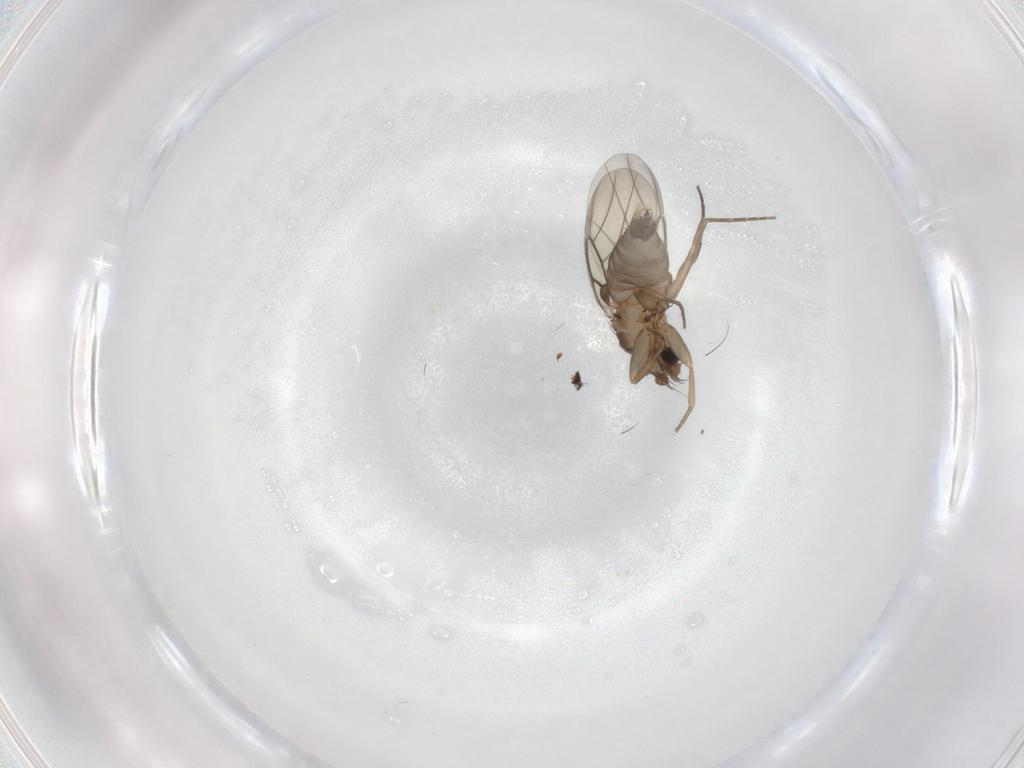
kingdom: Animalia
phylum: Arthropoda
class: Insecta
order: Diptera
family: Phoridae
